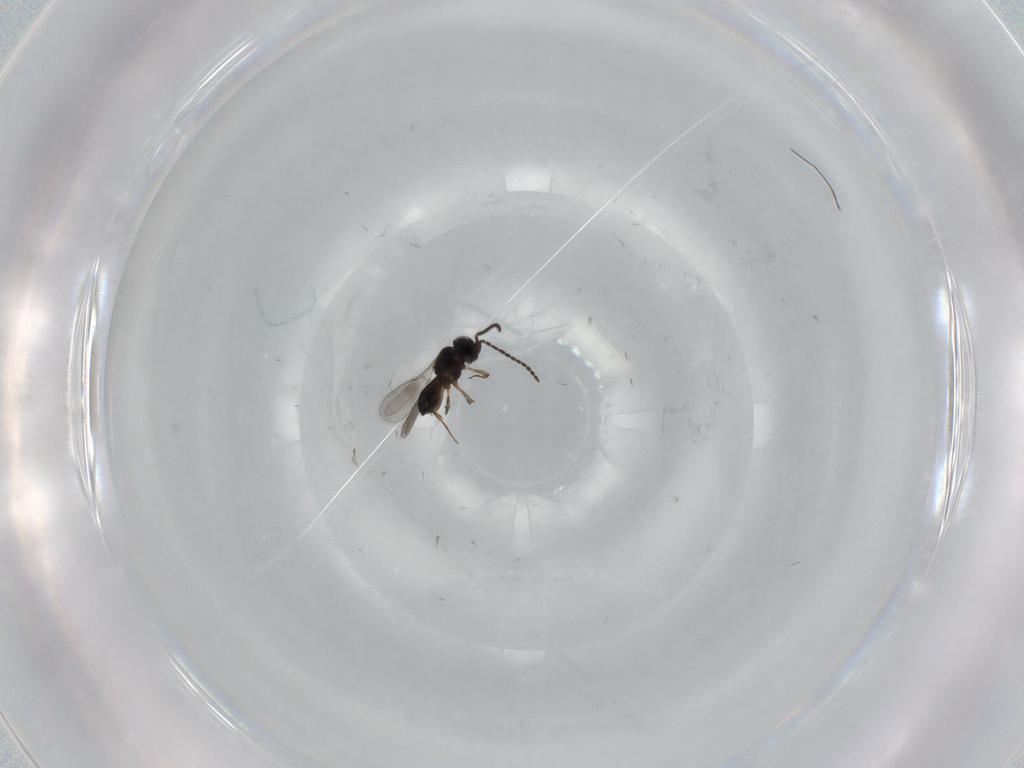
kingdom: Animalia
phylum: Arthropoda
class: Insecta
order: Hymenoptera
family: Scelionidae
